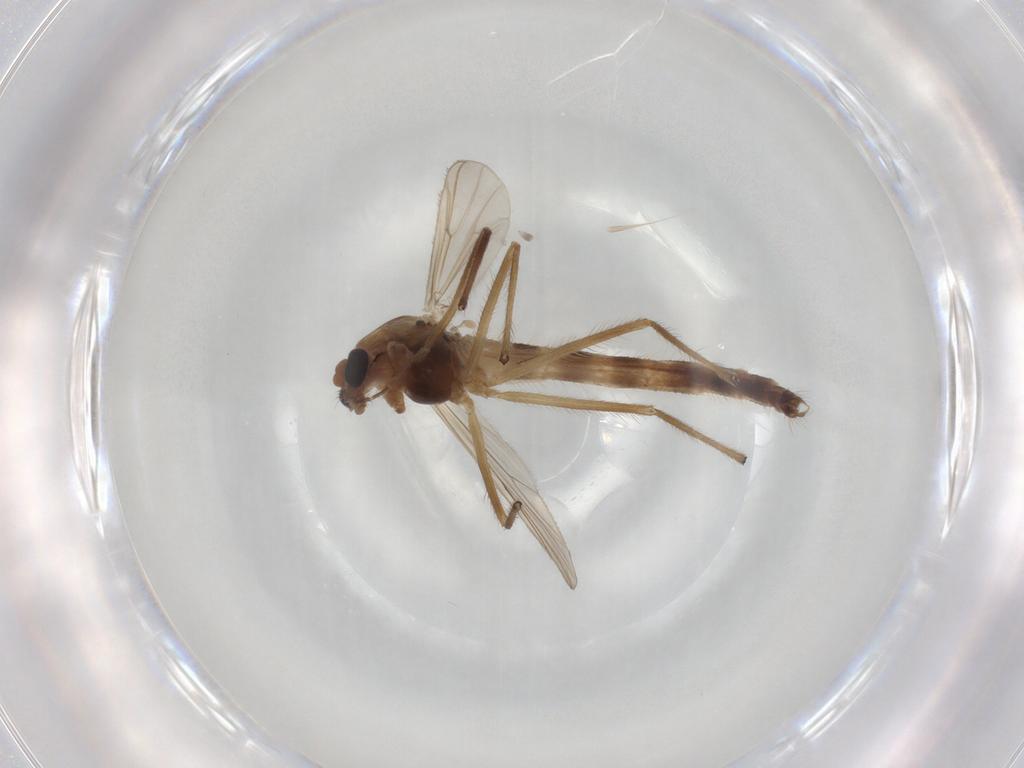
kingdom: Animalia
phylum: Arthropoda
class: Insecta
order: Diptera
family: Chironomidae
